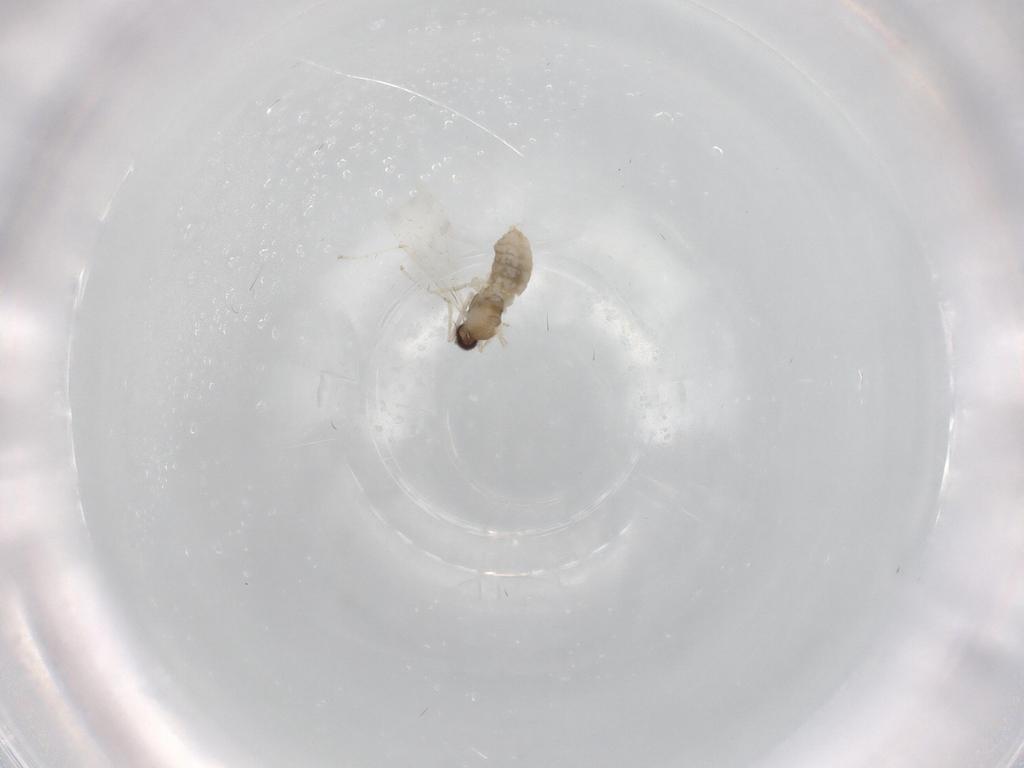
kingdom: Animalia
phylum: Arthropoda
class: Insecta
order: Diptera
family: Cecidomyiidae
